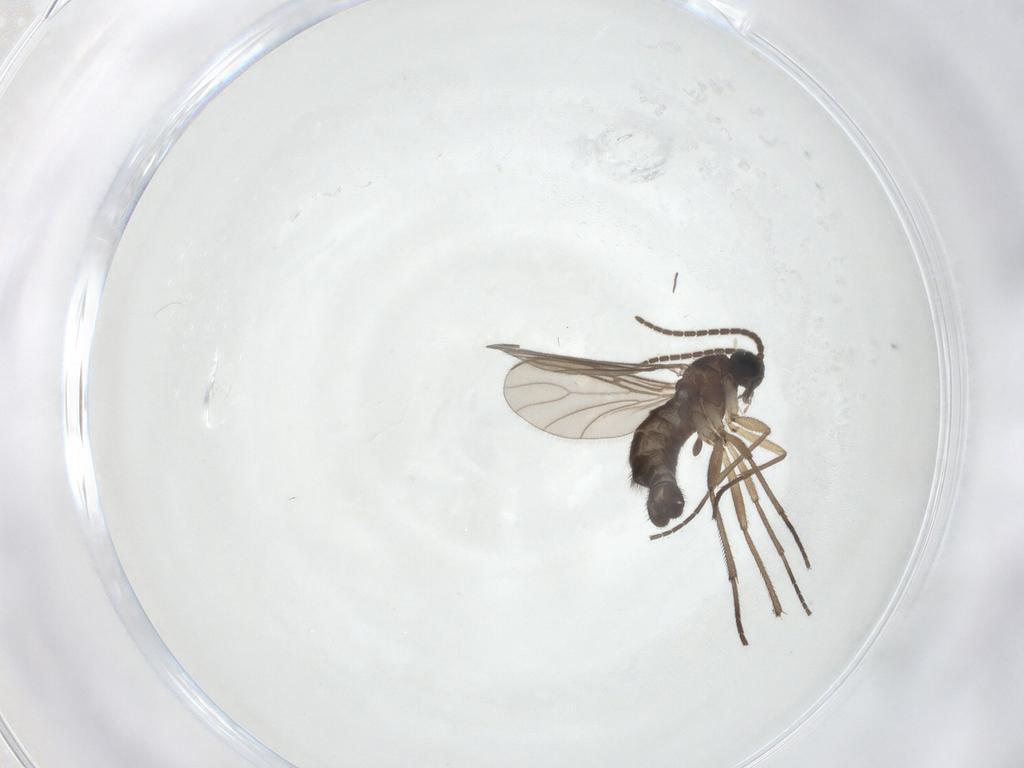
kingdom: Animalia
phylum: Arthropoda
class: Insecta
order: Diptera
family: Sciaridae
